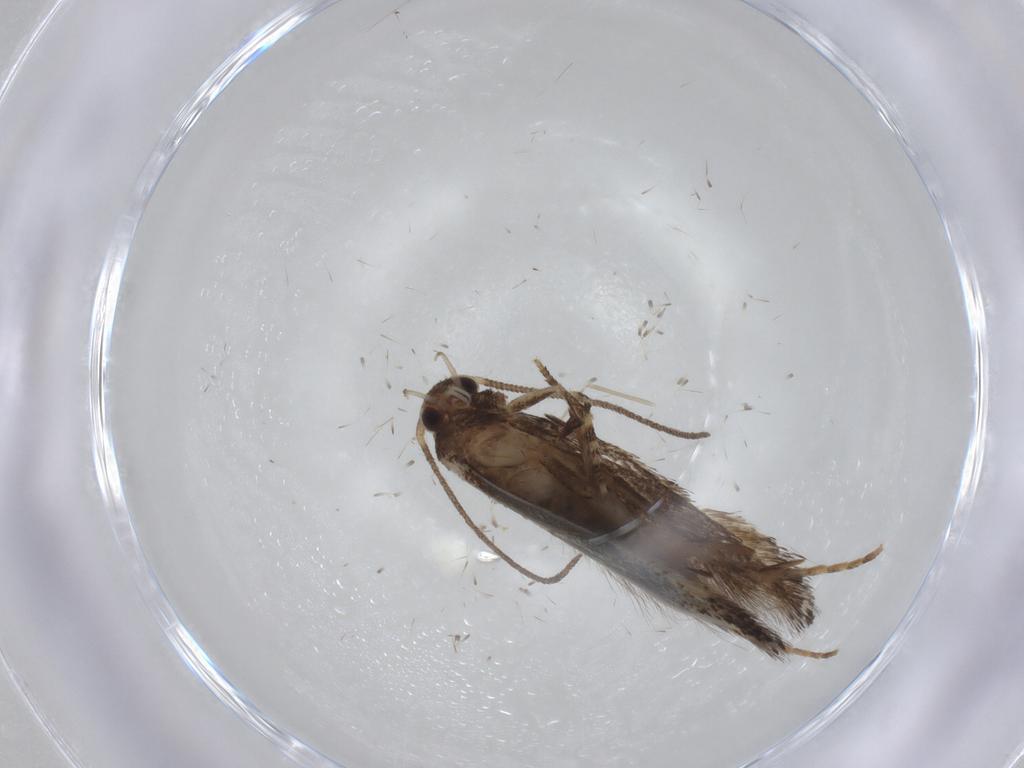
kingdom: Animalia
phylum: Arthropoda
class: Insecta
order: Lepidoptera
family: Elachistidae
